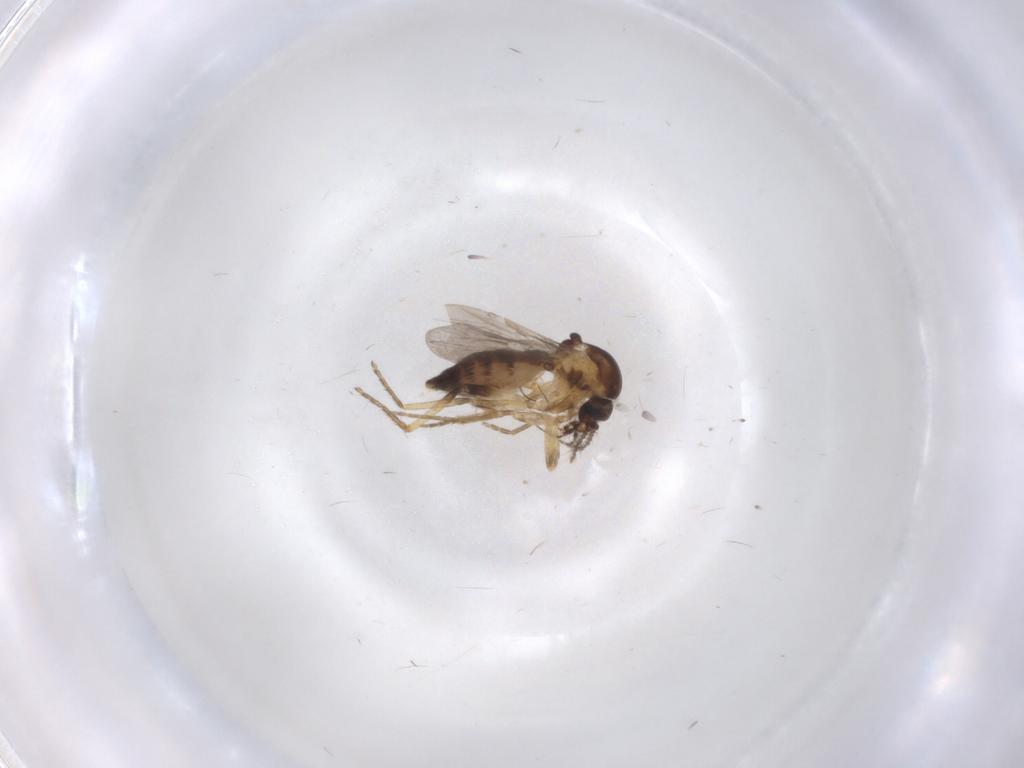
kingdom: Animalia
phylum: Arthropoda
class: Insecta
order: Diptera
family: Ceratopogonidae
